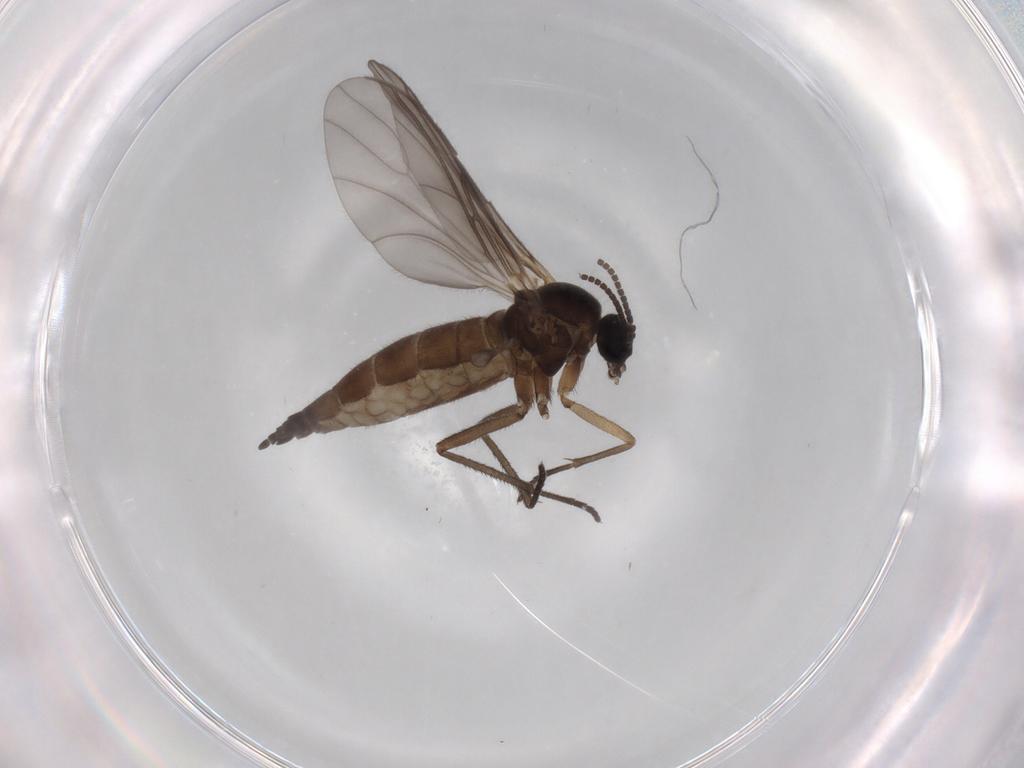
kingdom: Animalia
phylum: Arthropoda
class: Insecta
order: Diptera
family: Sciaridae
